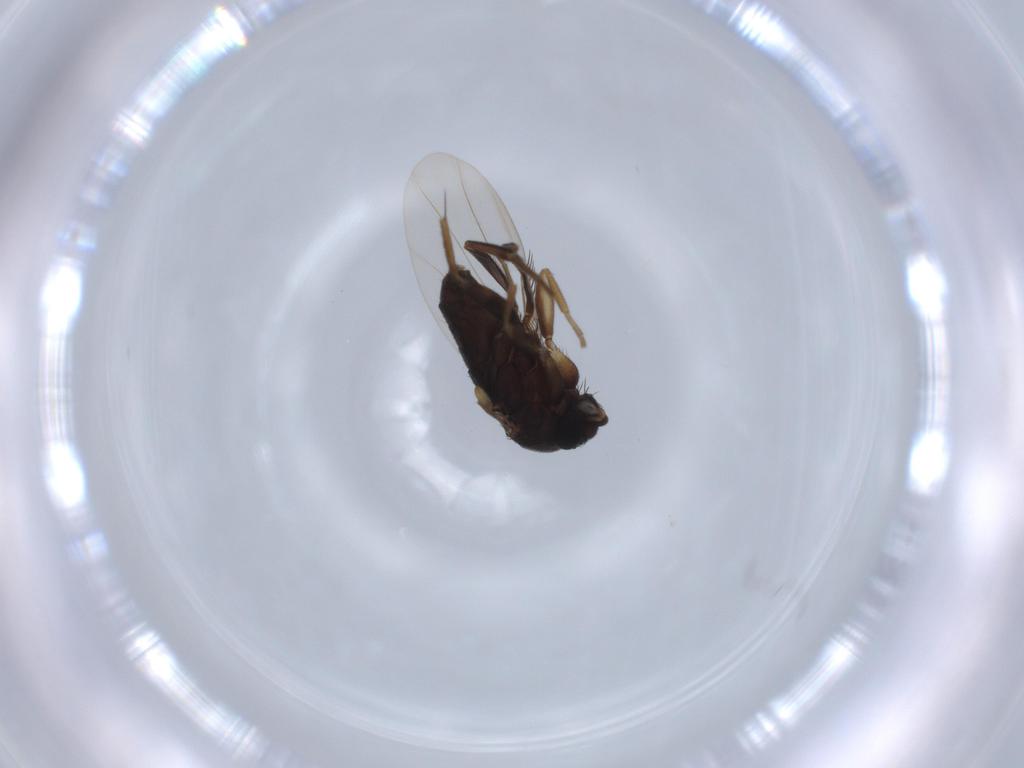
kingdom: Animalia
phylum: Arthropoda
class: Insecta
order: Diptera
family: Phoridae
